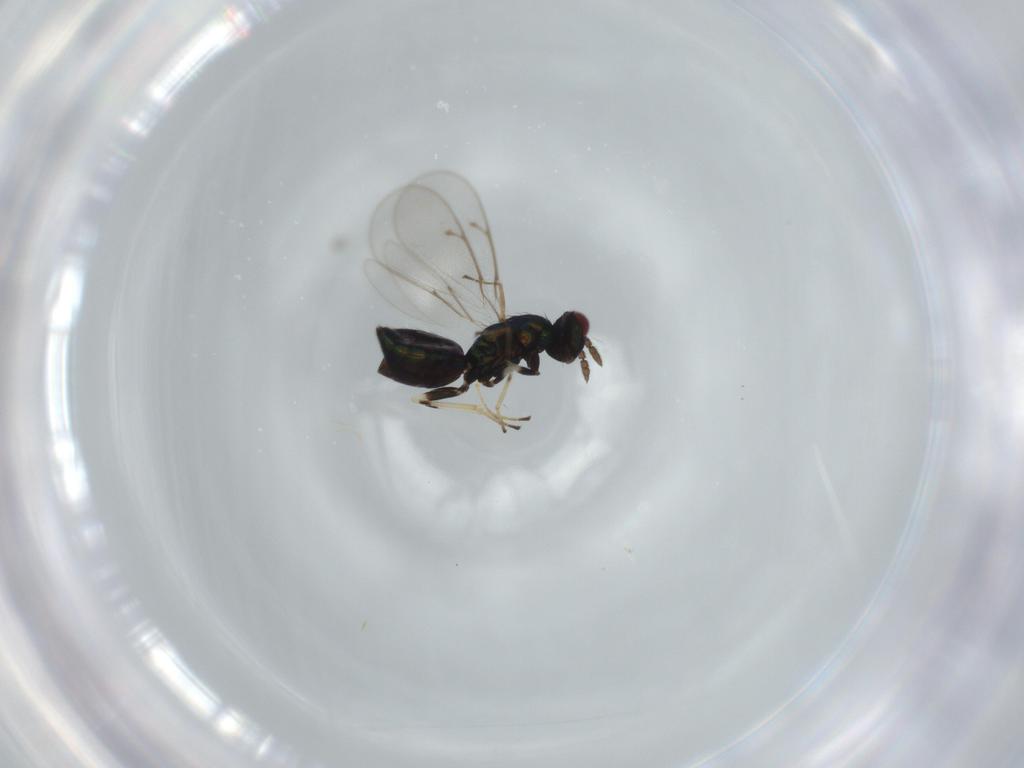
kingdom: Animalia
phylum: Arthropoda
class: Insecta
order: Hymenoptera
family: Eulophidae
